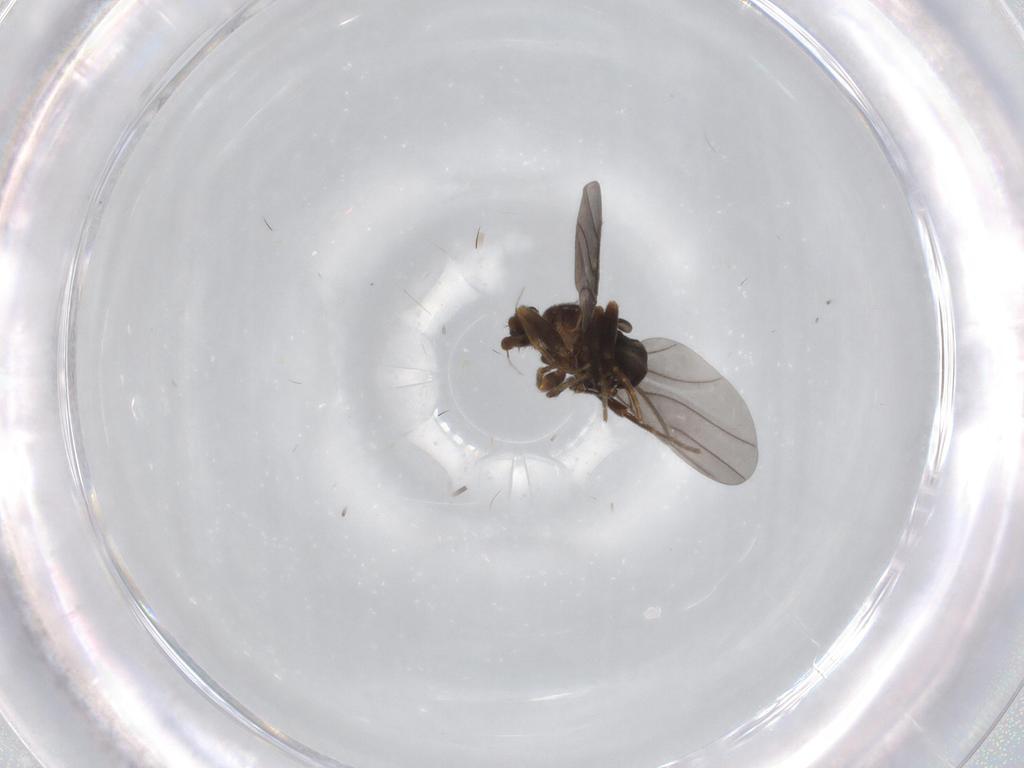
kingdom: Animalia
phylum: Arthropoda
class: Insecta
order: Diptera
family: Phoridae
